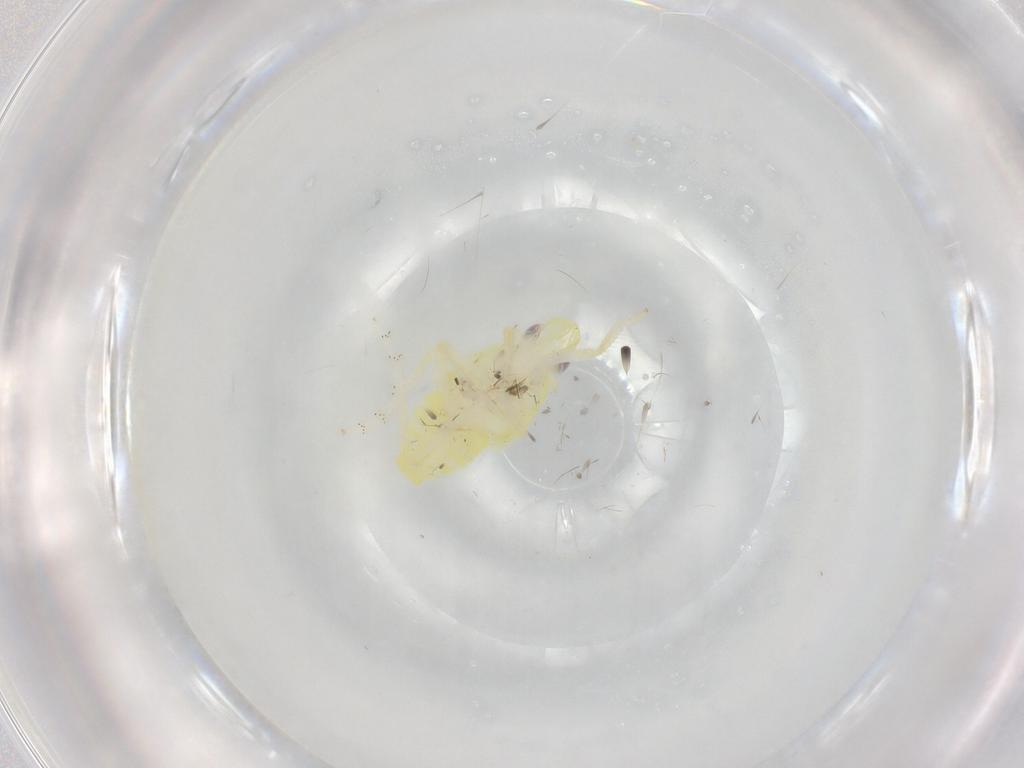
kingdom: Animalia
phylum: Arthropoda
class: Insecta
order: Hemiptera
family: Tropiduchidae
